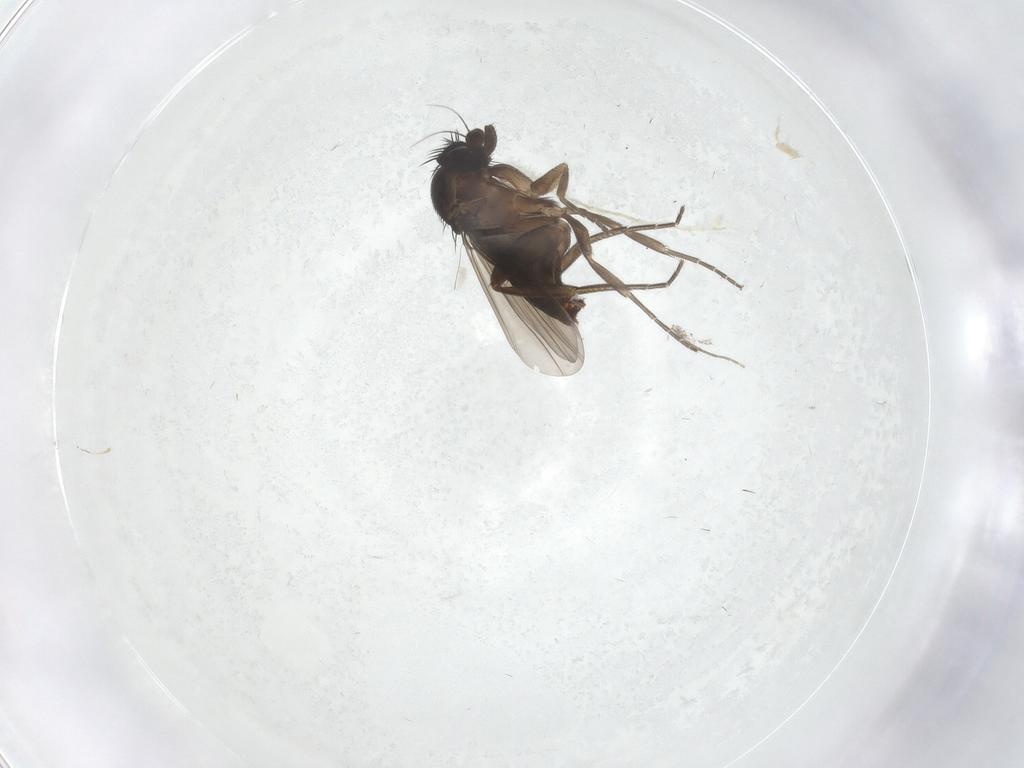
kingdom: Animalia
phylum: Arthropoda
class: Insecta
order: Diptera
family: Phoridae
